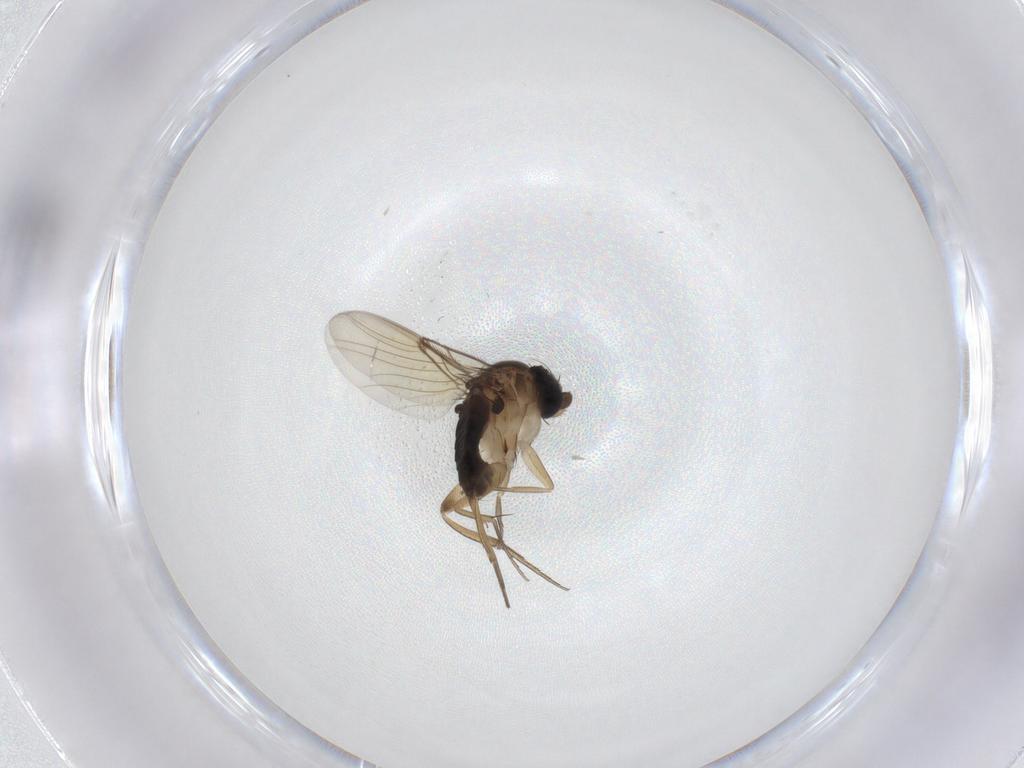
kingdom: Animalia
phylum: Arthropoda
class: Insecta
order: Diptera
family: Phoridae
